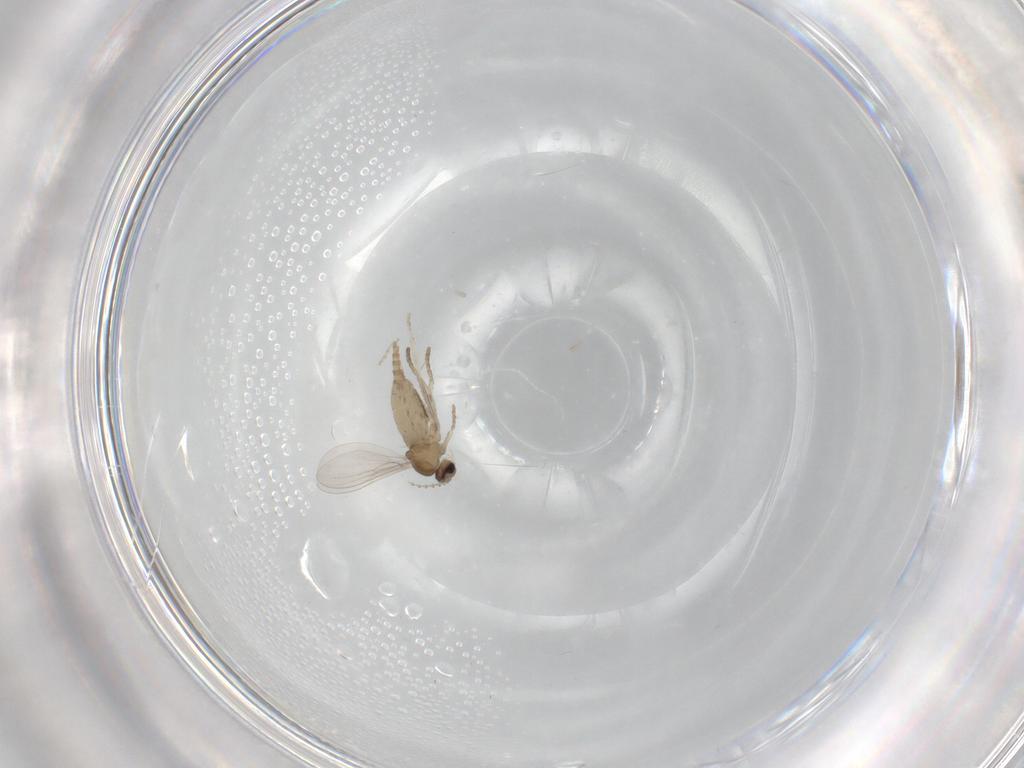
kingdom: Animalia
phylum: Arthropoda
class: Insecta
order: Diptera
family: Cecidomyiidae
